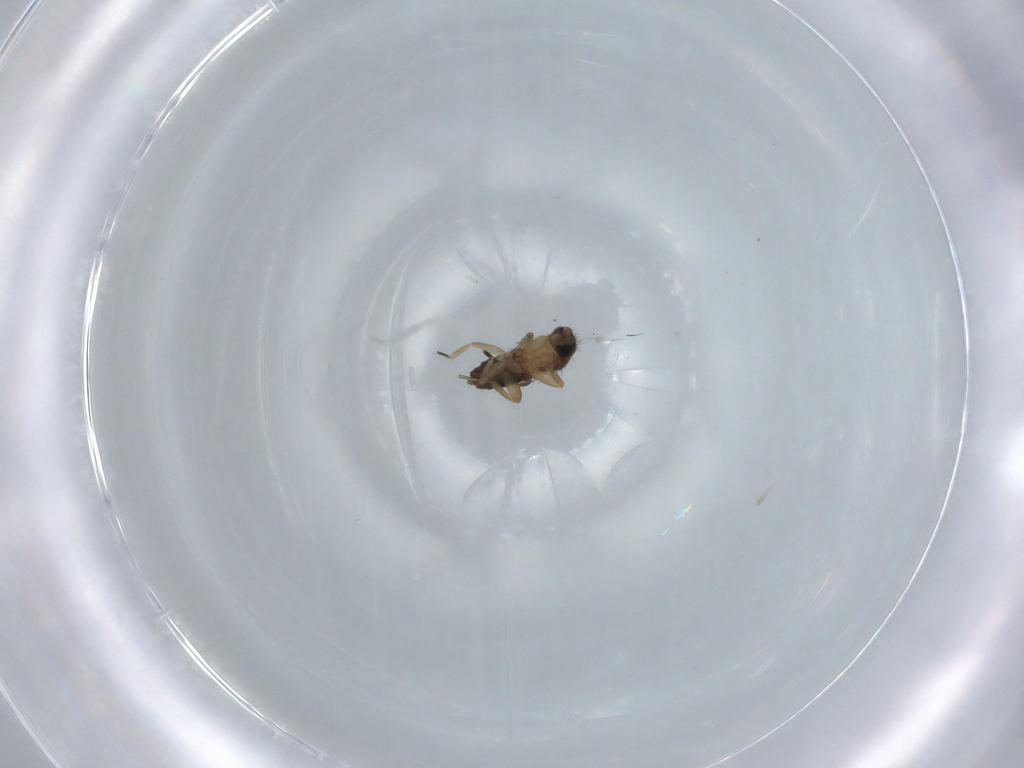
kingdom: Animalia
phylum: Arthropoda
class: Insecta
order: Diptera
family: Phoridae
